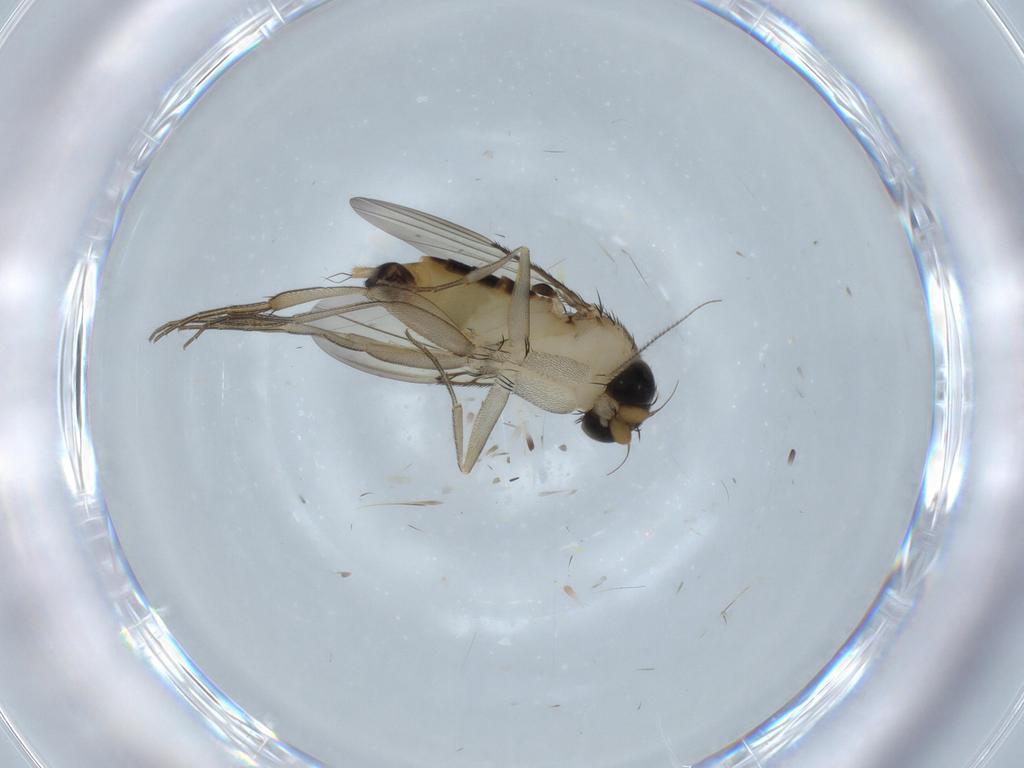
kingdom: Animalia
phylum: Arthropoda
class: Insecta
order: Diptera
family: Phoridae
